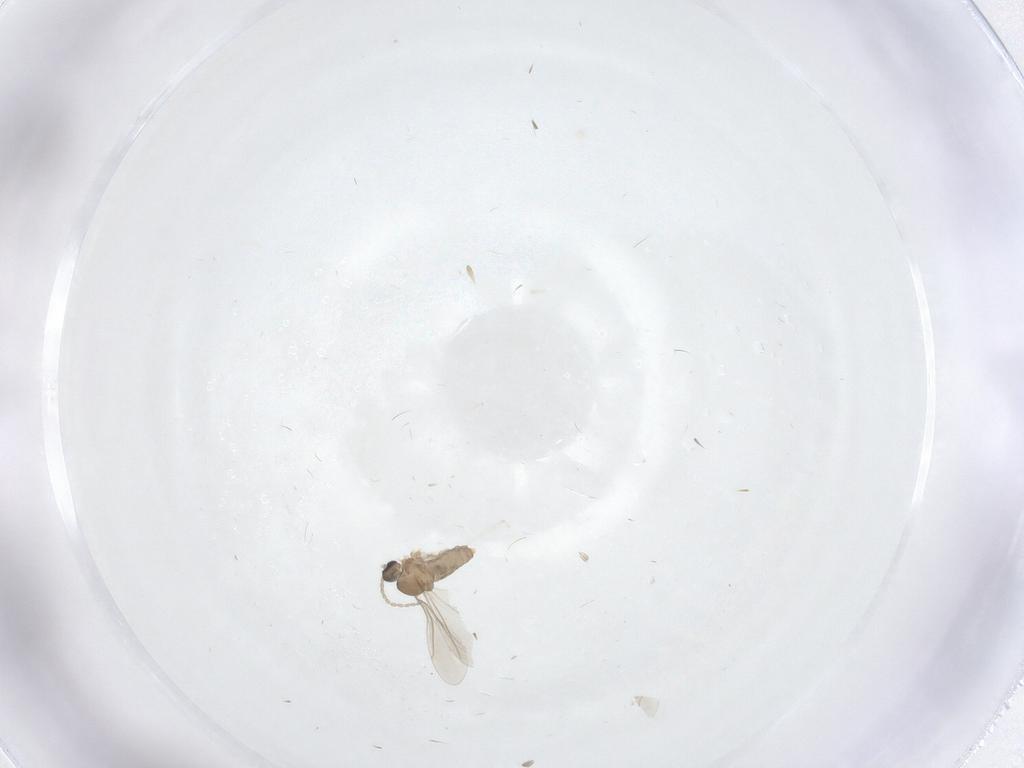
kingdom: Animalia
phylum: Arthropoda
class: Insecta
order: Diptera
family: Cecidomyiidae
